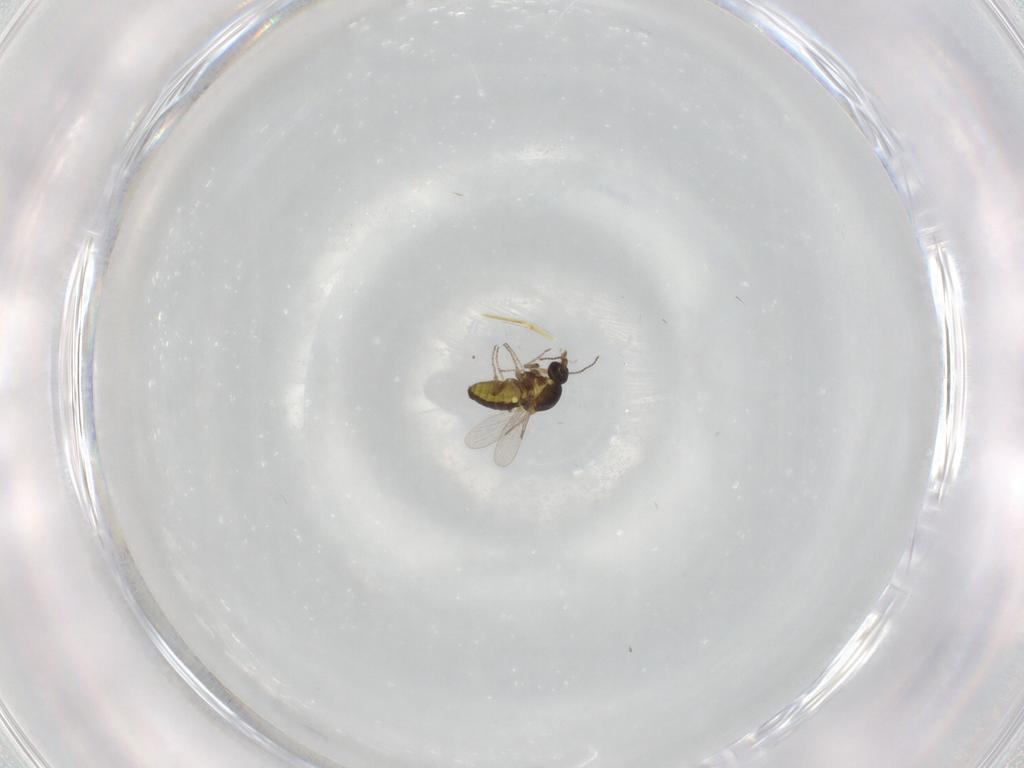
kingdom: Animalia
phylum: Arthropoda
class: Insecta
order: Diptera
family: Ceratopogonidae
